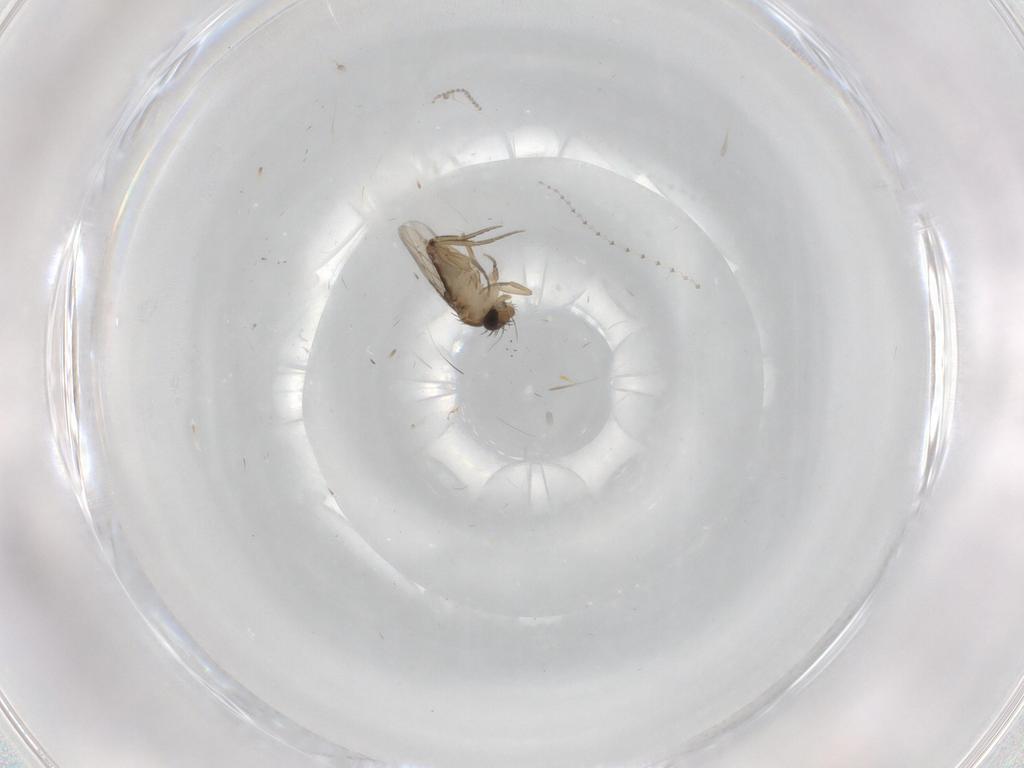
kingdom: Animalia
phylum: Arthropoda
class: Insecta
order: Diptera
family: Phoridae
